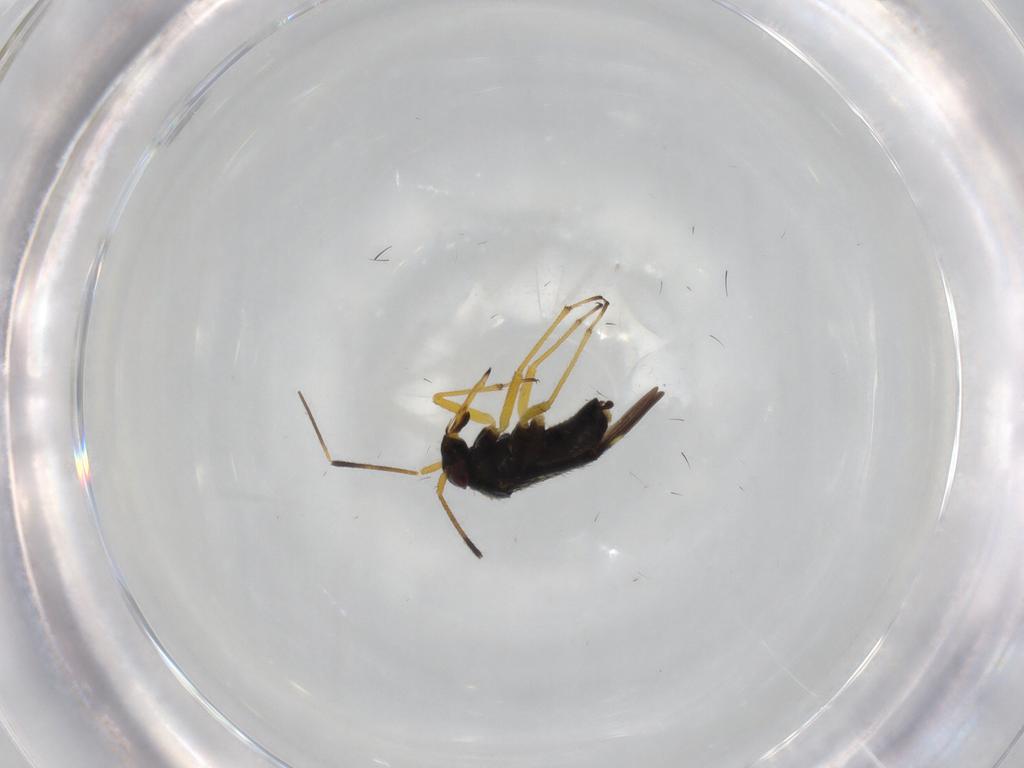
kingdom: Animalia
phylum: Arthropoda
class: Insecta
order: Hemiptera
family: Miridae
